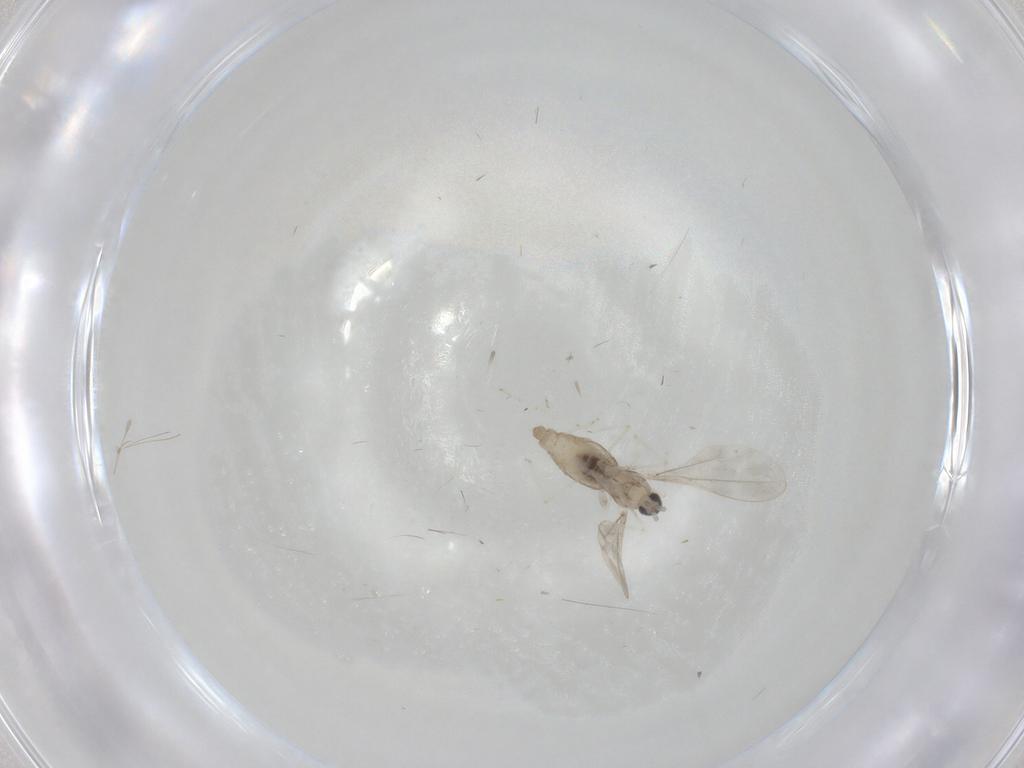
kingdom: Animalia
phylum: Arthropoda
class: Insecta
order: Diptera
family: Cecidomyiidae
